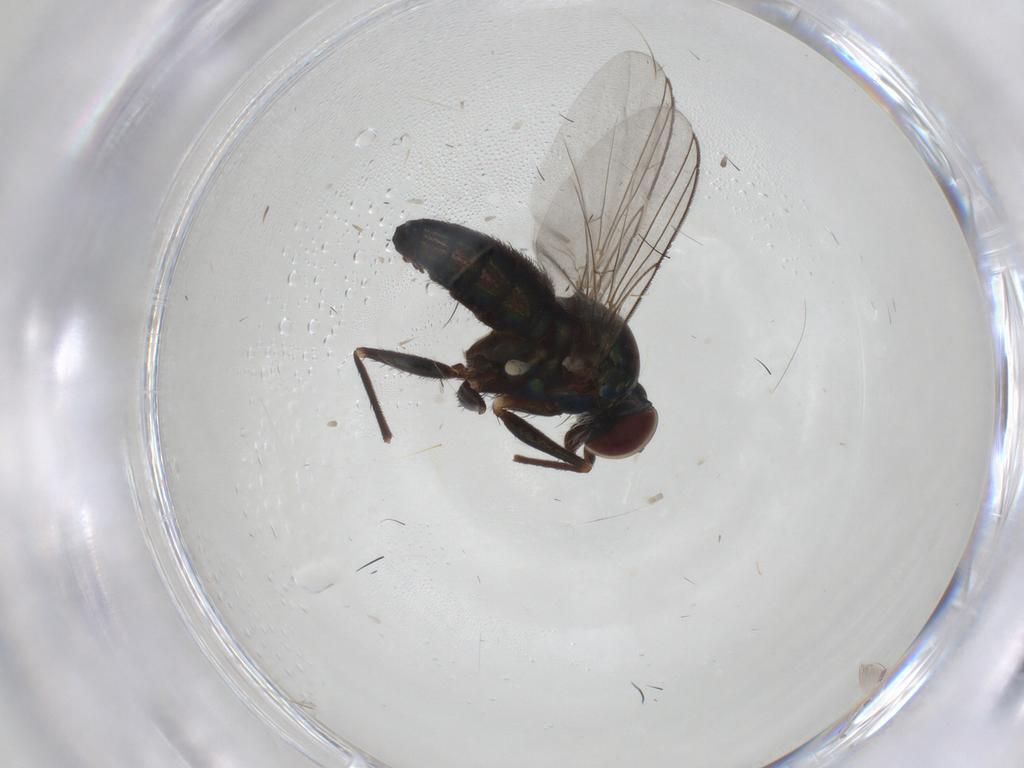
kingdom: Animalia
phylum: Arthropoda
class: Insecta
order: Diptera
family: Dolichopodidae
